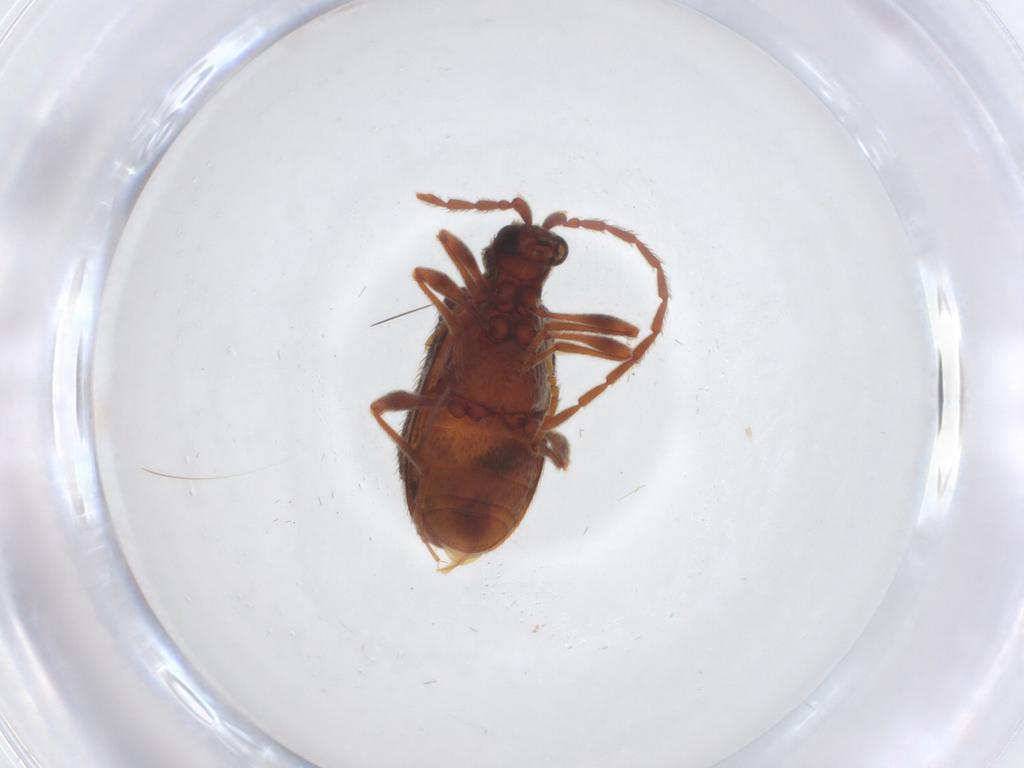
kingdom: Animalia
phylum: Arthropoda
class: Insecta
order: Coleoptera
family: Ptinidae
